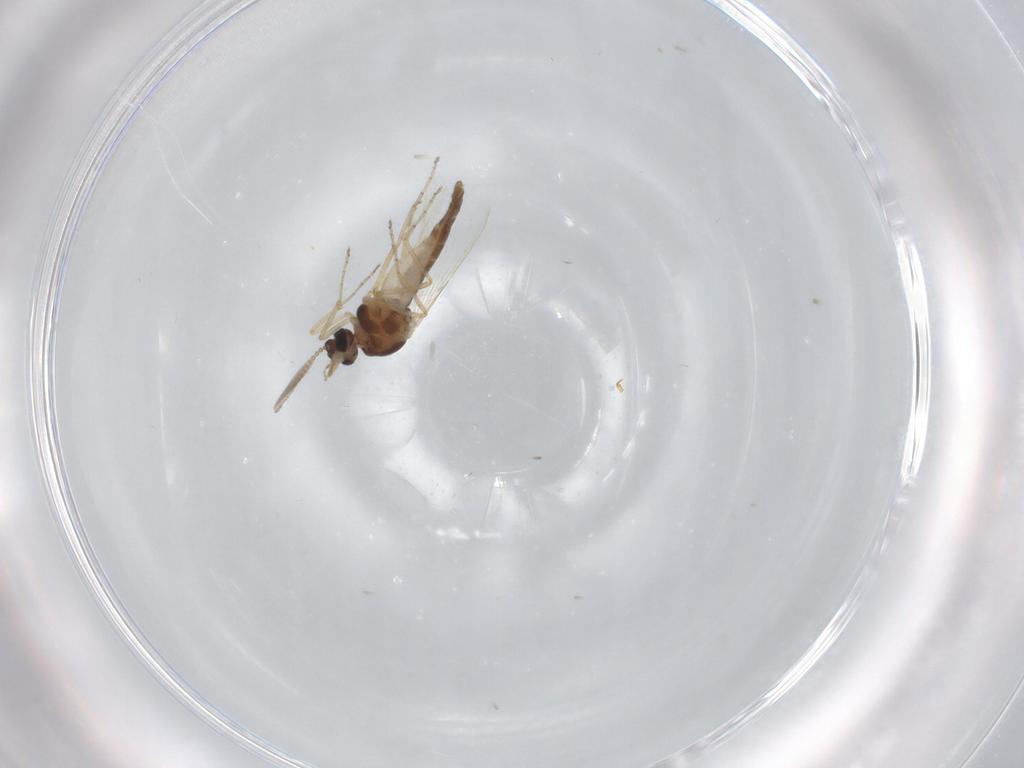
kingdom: Animalia
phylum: Arthropoda
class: Insecta
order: Diptera
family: Ceratopogonidae
